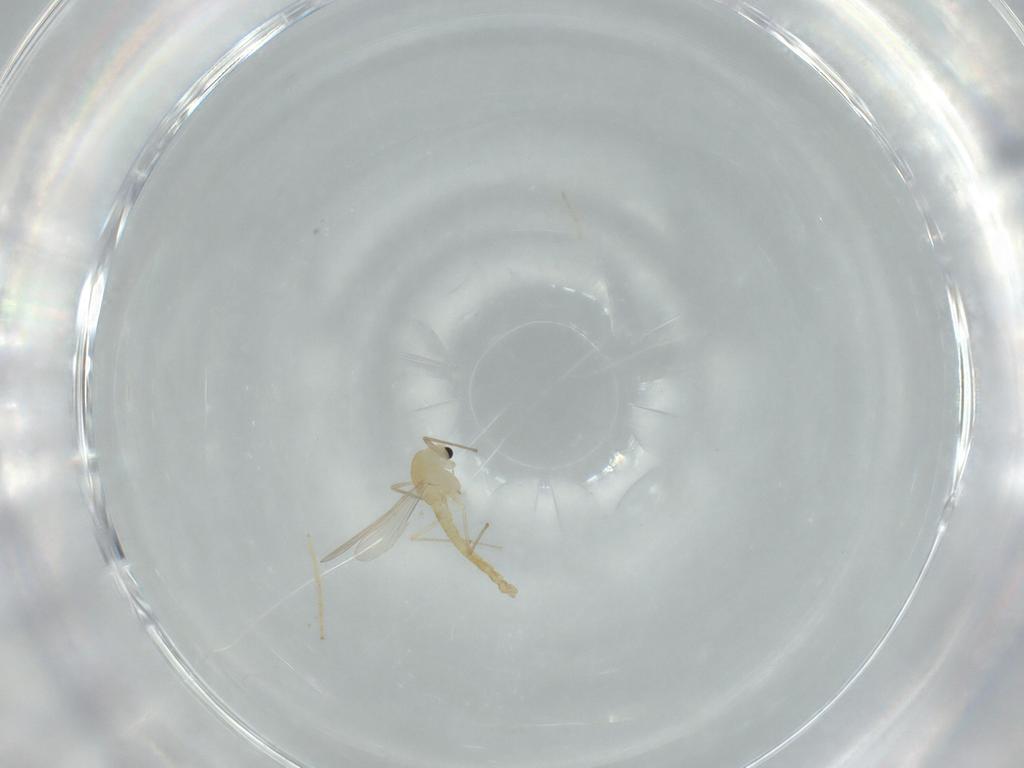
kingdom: Animalia
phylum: Arthropoda
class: Insecta
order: Diptera
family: Chironomidae
